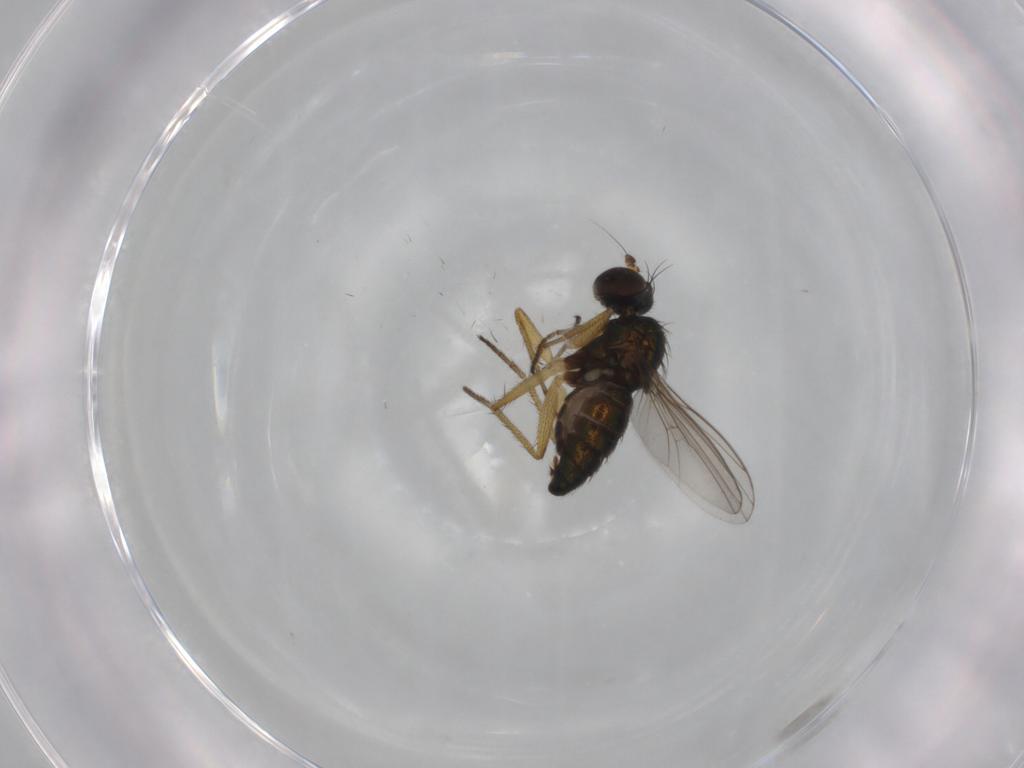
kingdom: Animalia
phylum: Arthropoda
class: Insecta
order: Diptera
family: Dolichopodidae
